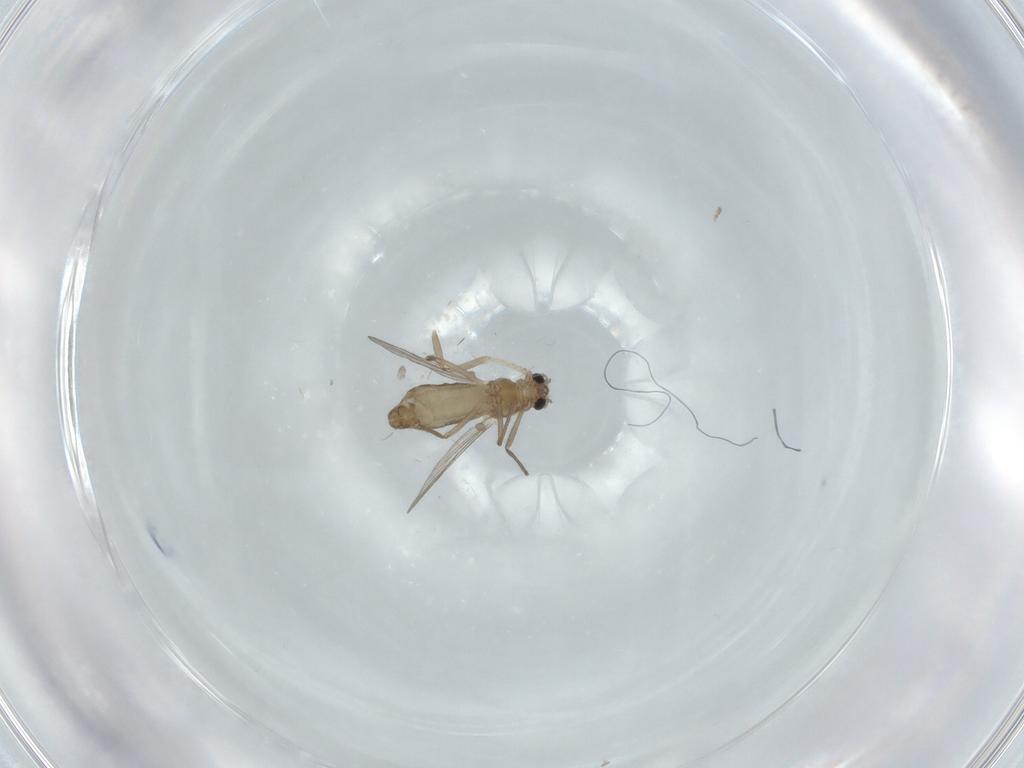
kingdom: Animalia
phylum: Arthropoda
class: Insecta
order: Diptera
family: Chironomidae
